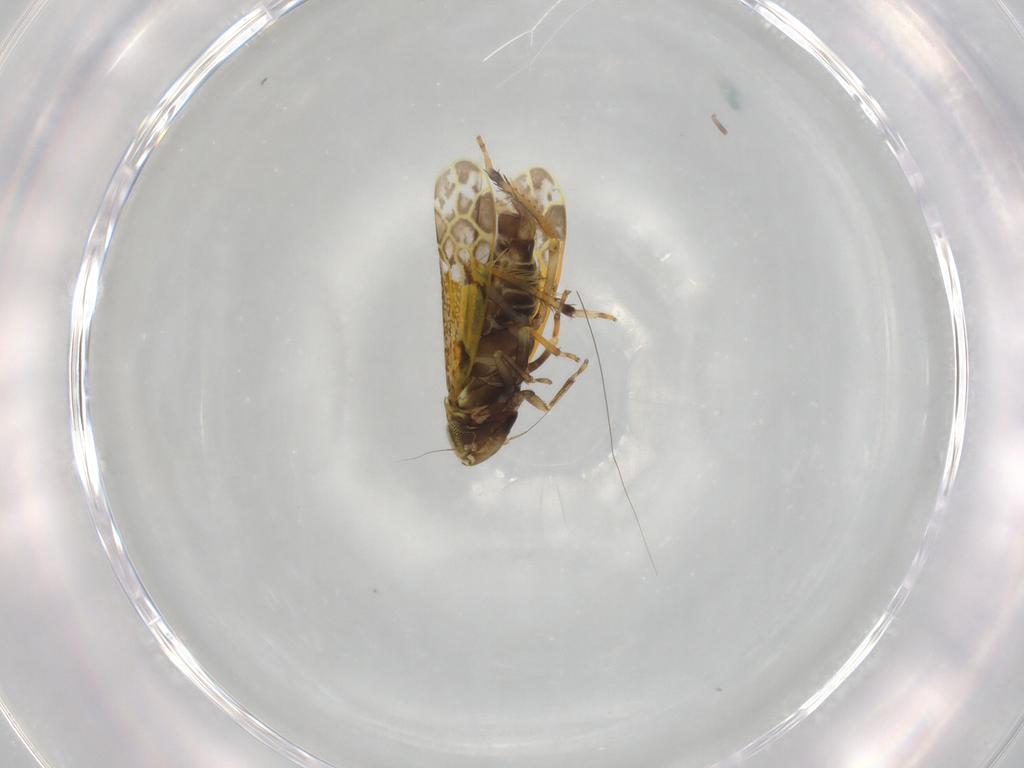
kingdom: Animalia
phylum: Arthropoda
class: Insecta
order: Hemiptera
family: Cicadellidae
